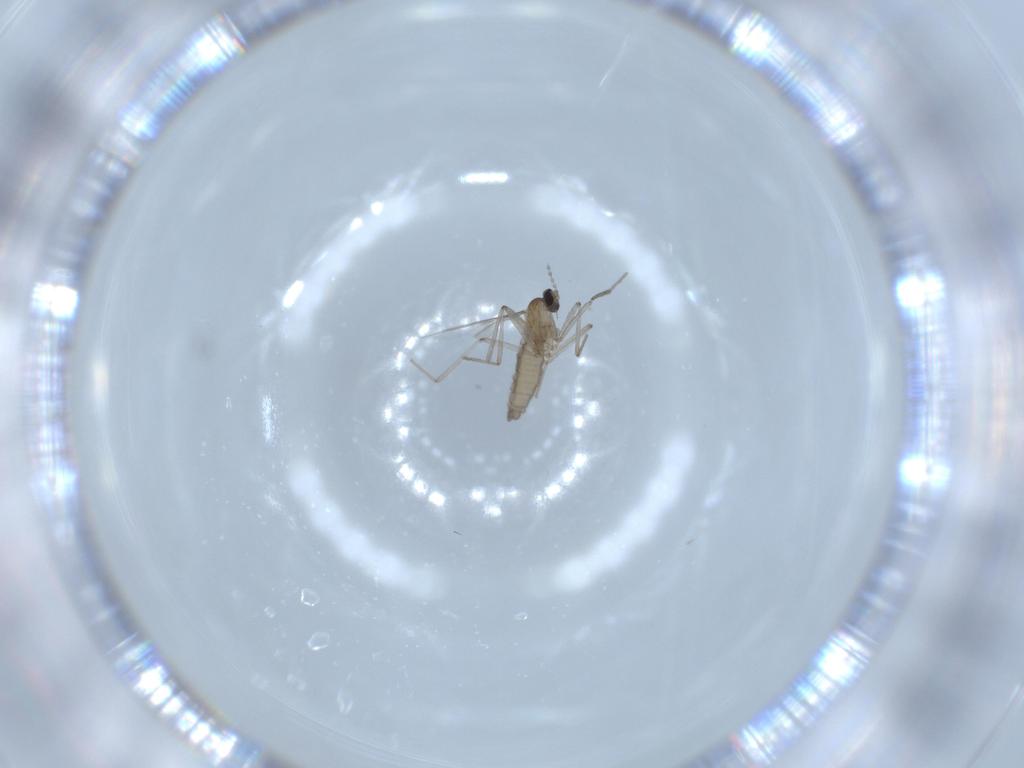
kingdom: Animalia
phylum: Arthropoda
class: Insecta
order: Diptera
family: Cecidomyiidae
